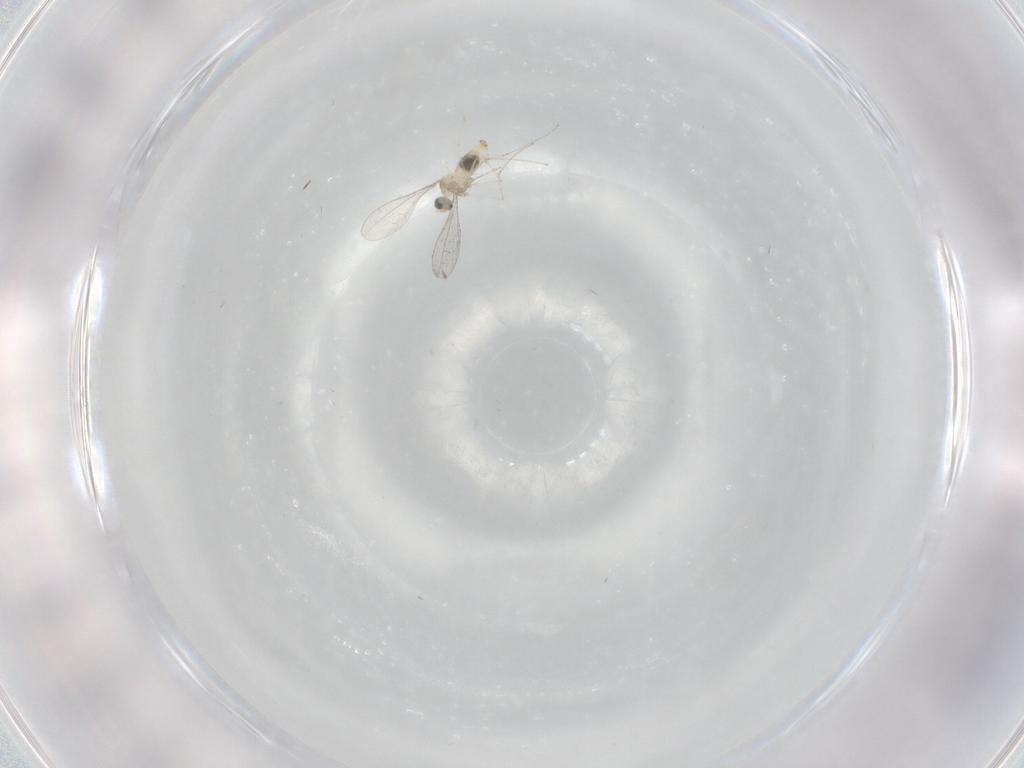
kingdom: Animalia
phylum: Arthropoda
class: Insecta
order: Diptera
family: Cecidomyiidae
